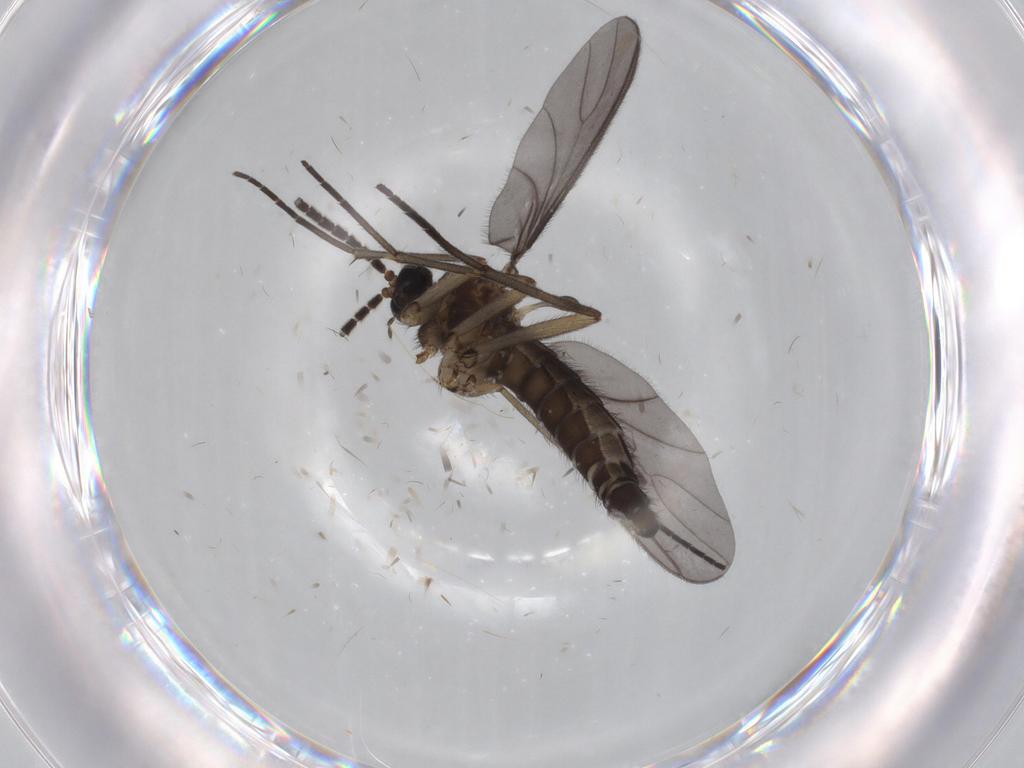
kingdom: Animalia
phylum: Arthropoda
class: Insecta
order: Diptera
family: Sciaridae
